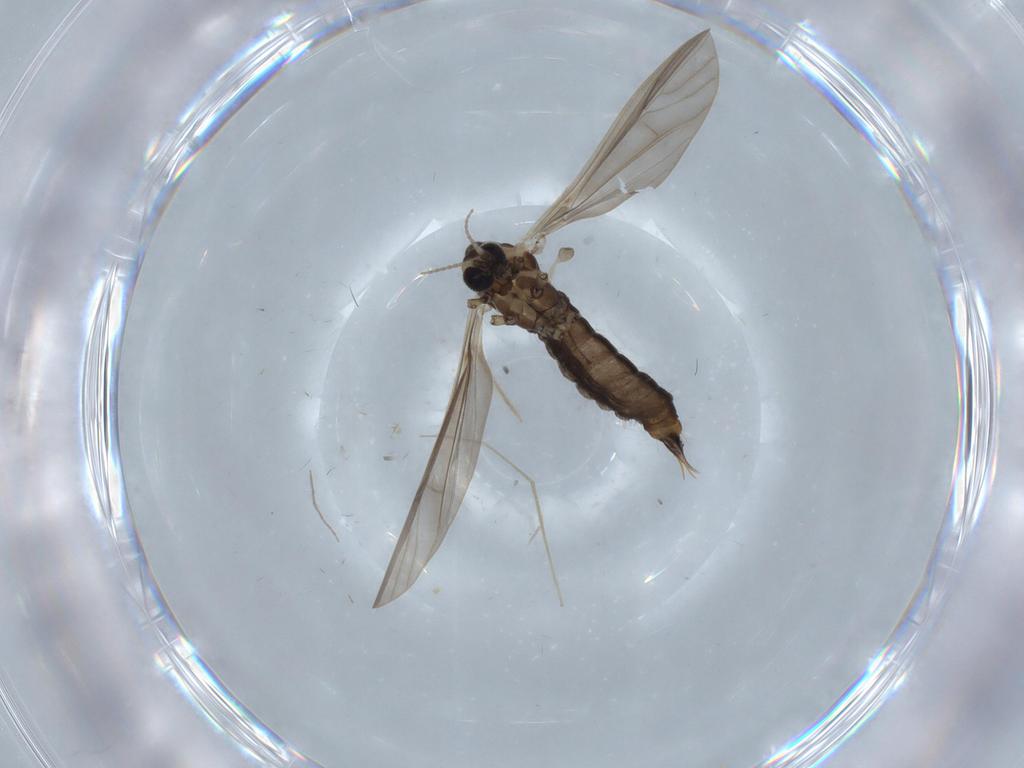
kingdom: Animalia
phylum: Arthropoda
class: Insecta
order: Diptera
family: Limoniidae
